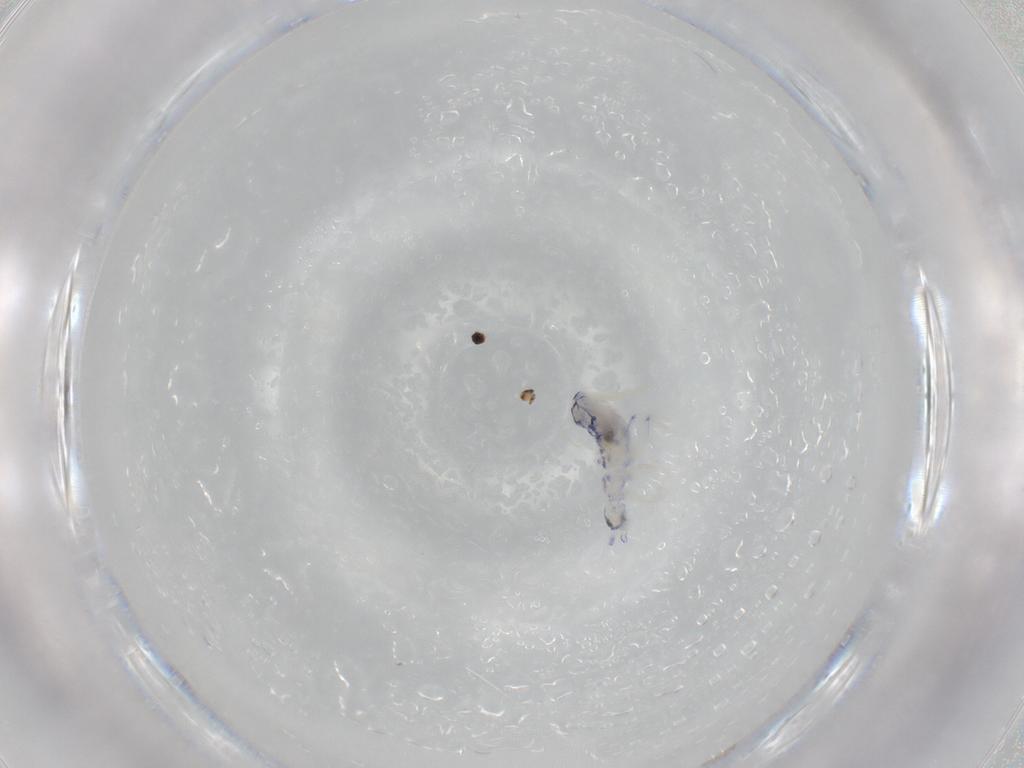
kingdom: Animalia
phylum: Arthropoda
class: Collembola
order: Entomobryomorpha
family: Entomobryidae
